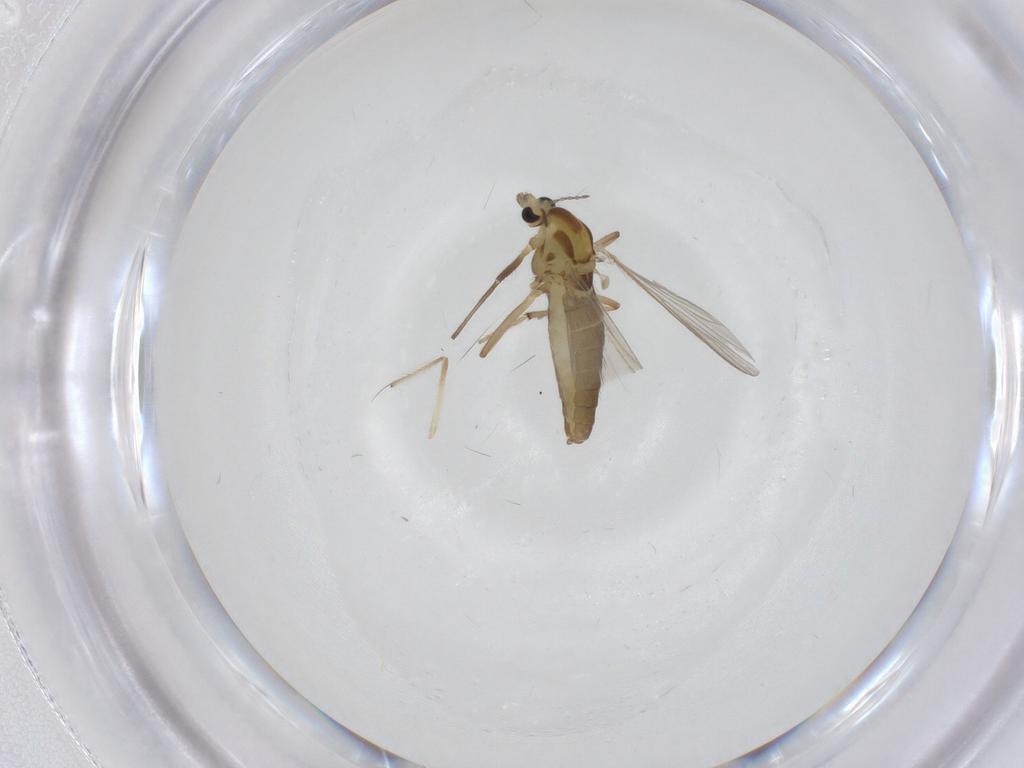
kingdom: Animalia
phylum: Arthropoda
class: Insecta
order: Diptera
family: Chironomidae
